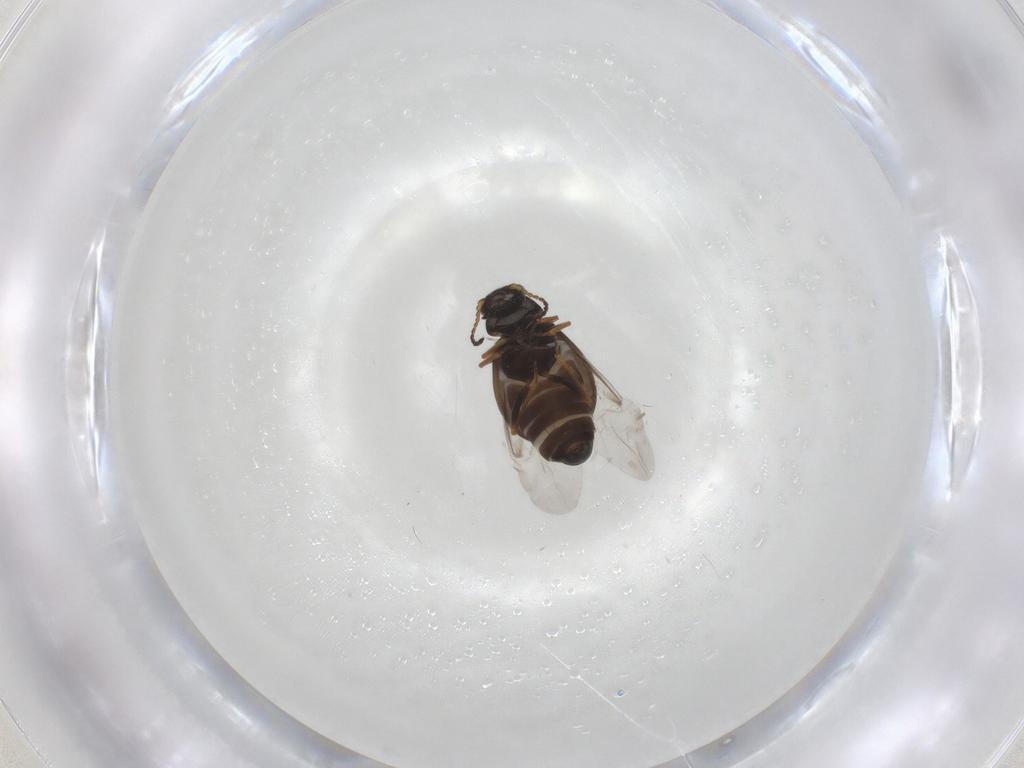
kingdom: Animalia
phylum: Arthropoda
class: Insecta
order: Coleoptera
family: Melyridae
